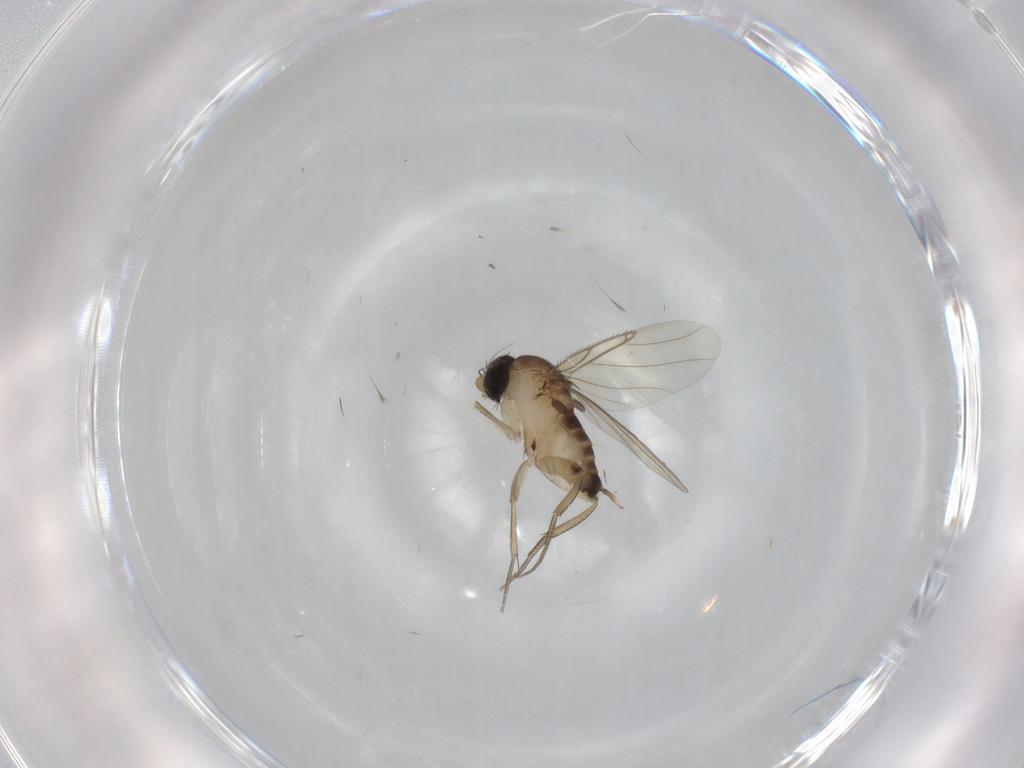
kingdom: Animalia
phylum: Arthropoda
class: Insecta
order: Diptera
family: Phoridae
